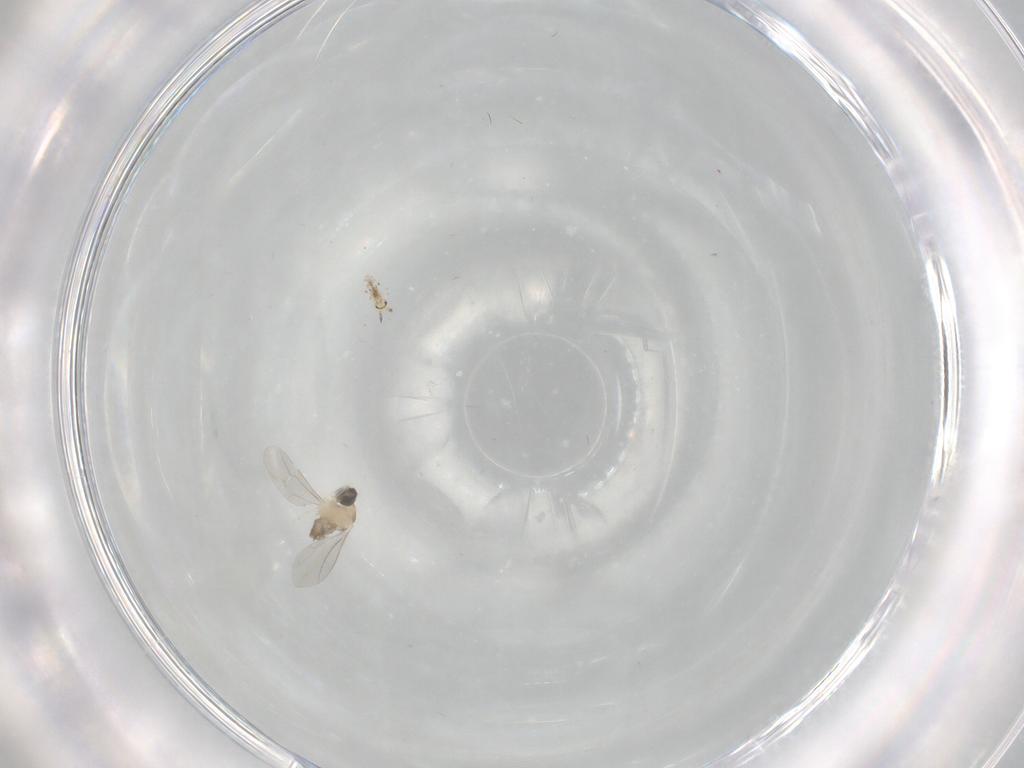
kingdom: Animalia
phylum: Arthropoda
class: Insecta
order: Diptera
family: Cecidomyiidae
